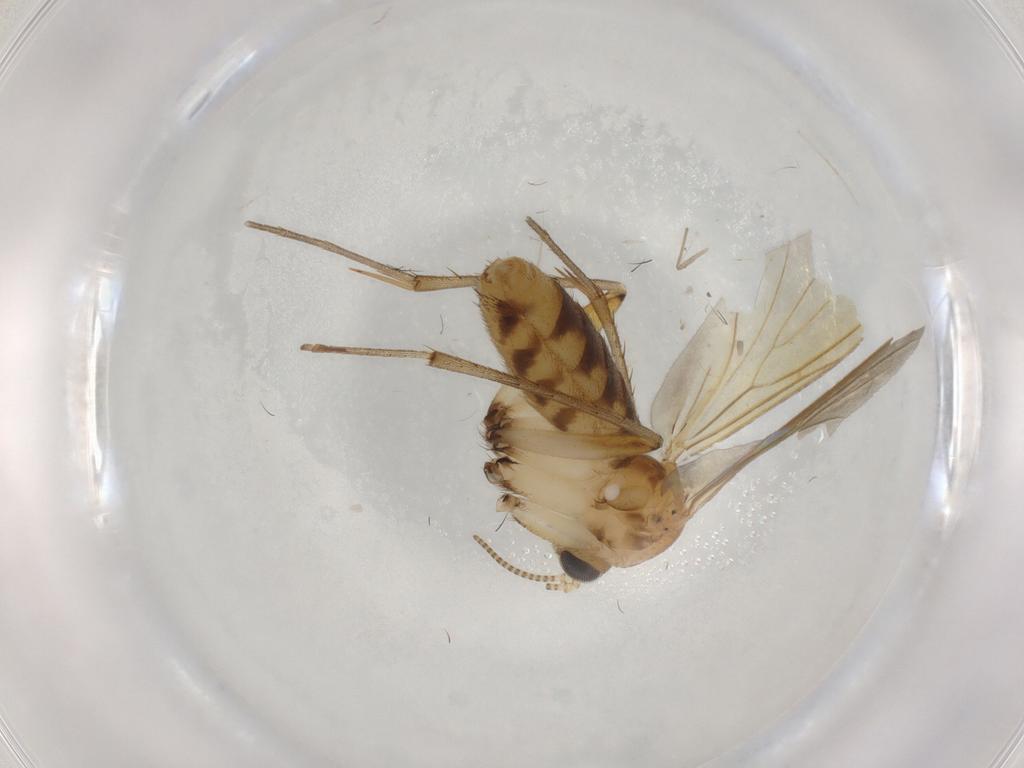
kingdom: Animalia
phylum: Arthropoda
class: Insecta
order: Diptera
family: Mycetophilidae
